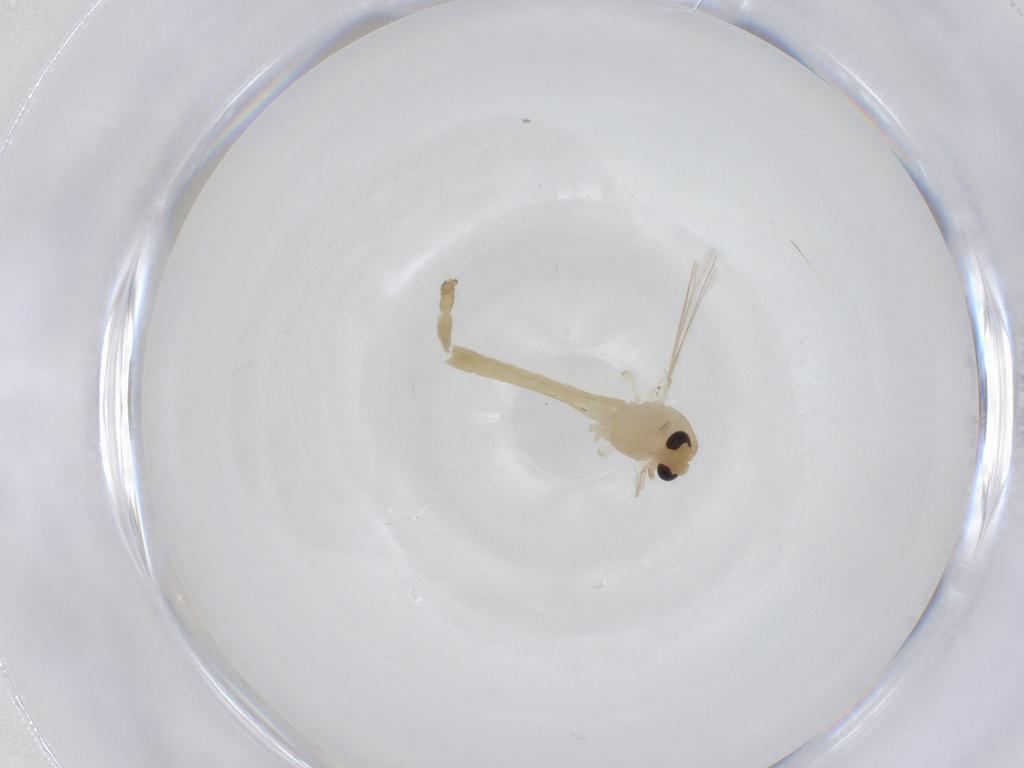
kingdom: Animalia
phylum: Arthropoda
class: Insecta
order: Diptera
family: Chironomidae
